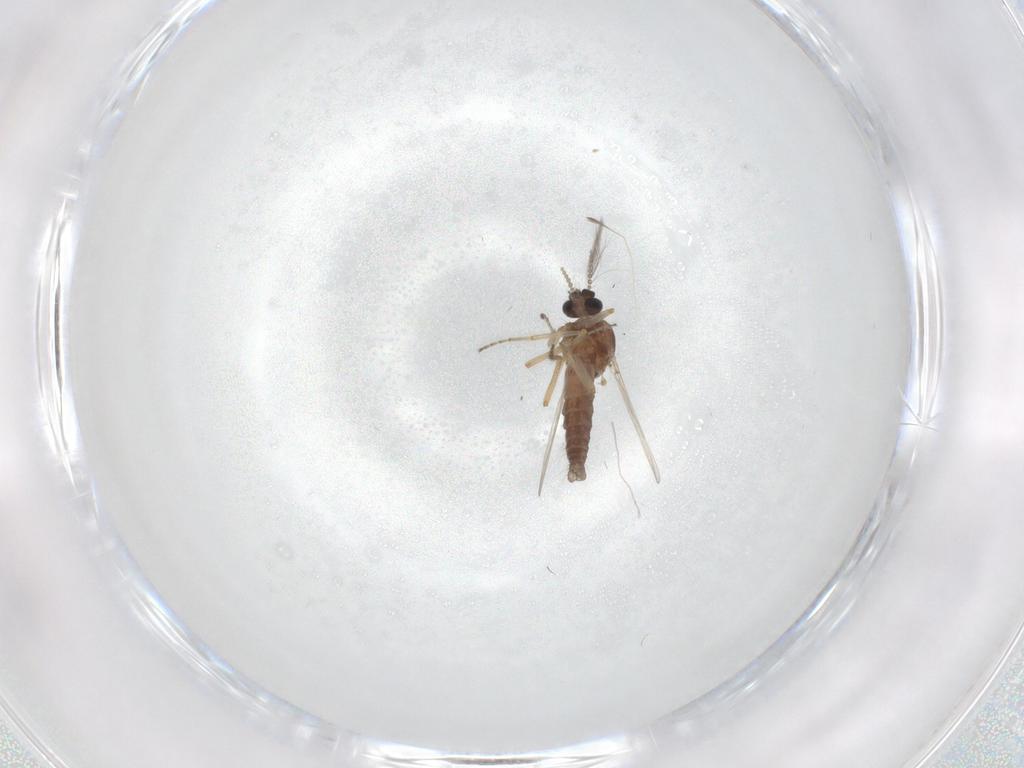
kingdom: Animalia
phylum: Arthropoda
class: Insecta
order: Diptera
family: Ceratopogonidae
